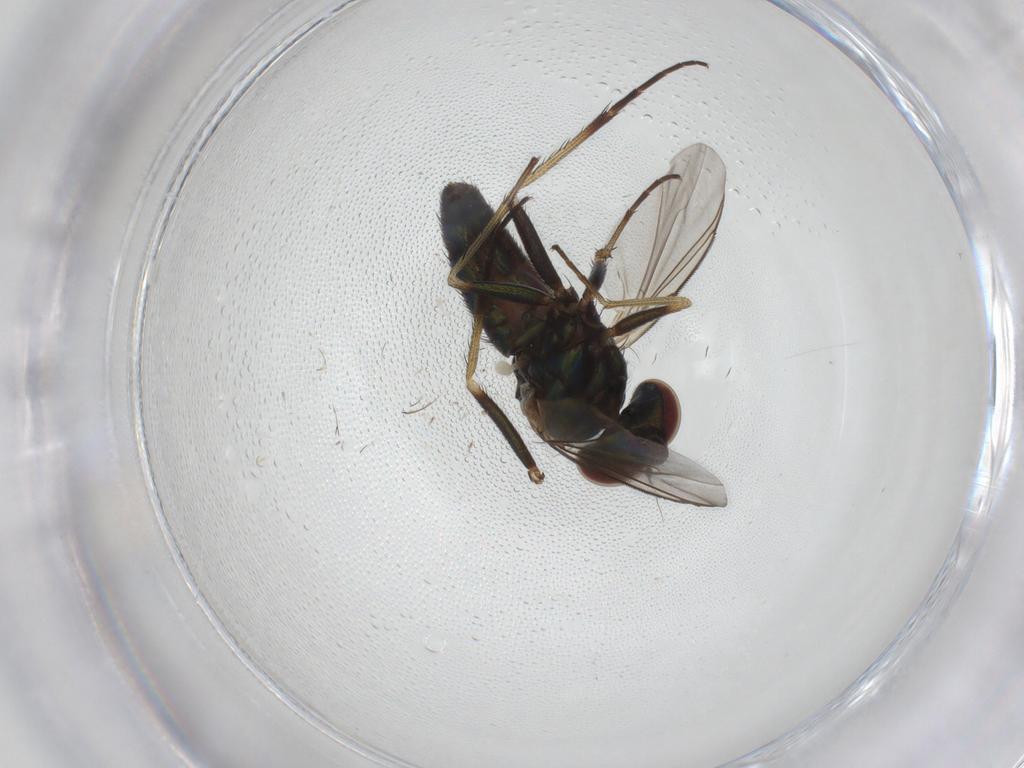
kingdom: Animalia
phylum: Arthropoda
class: Insecta
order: Diptera
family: Dolichopodidae
